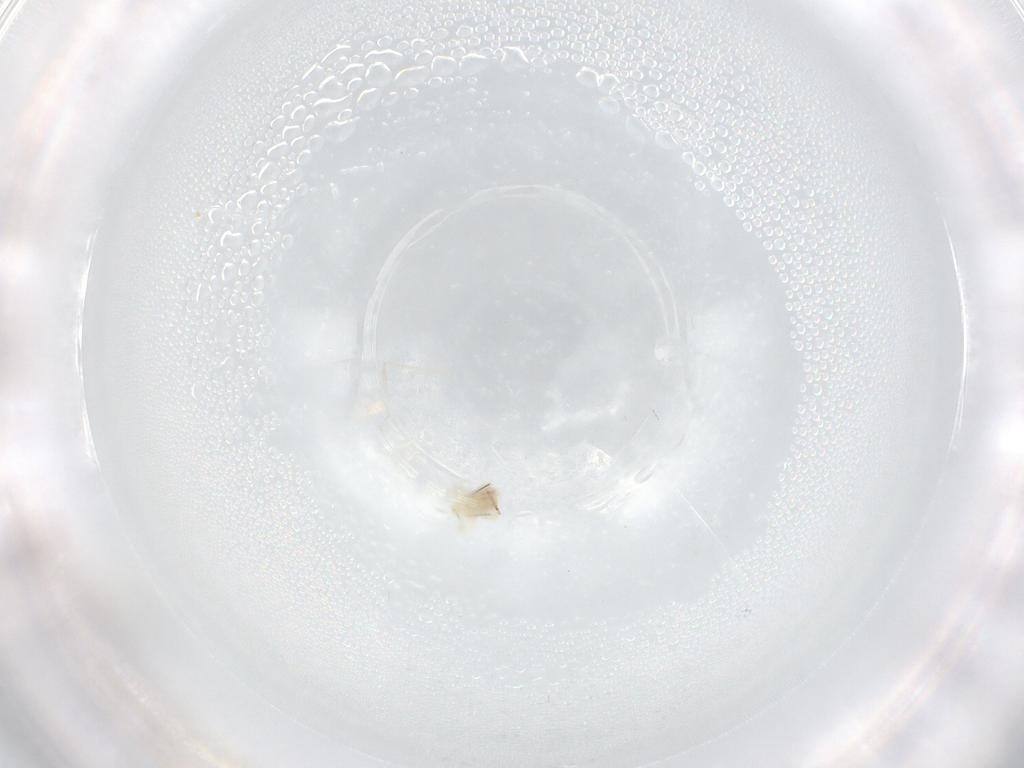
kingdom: Animalia
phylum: Arthropoda
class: Arachnida
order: Trombidiformes
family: Anystidae
